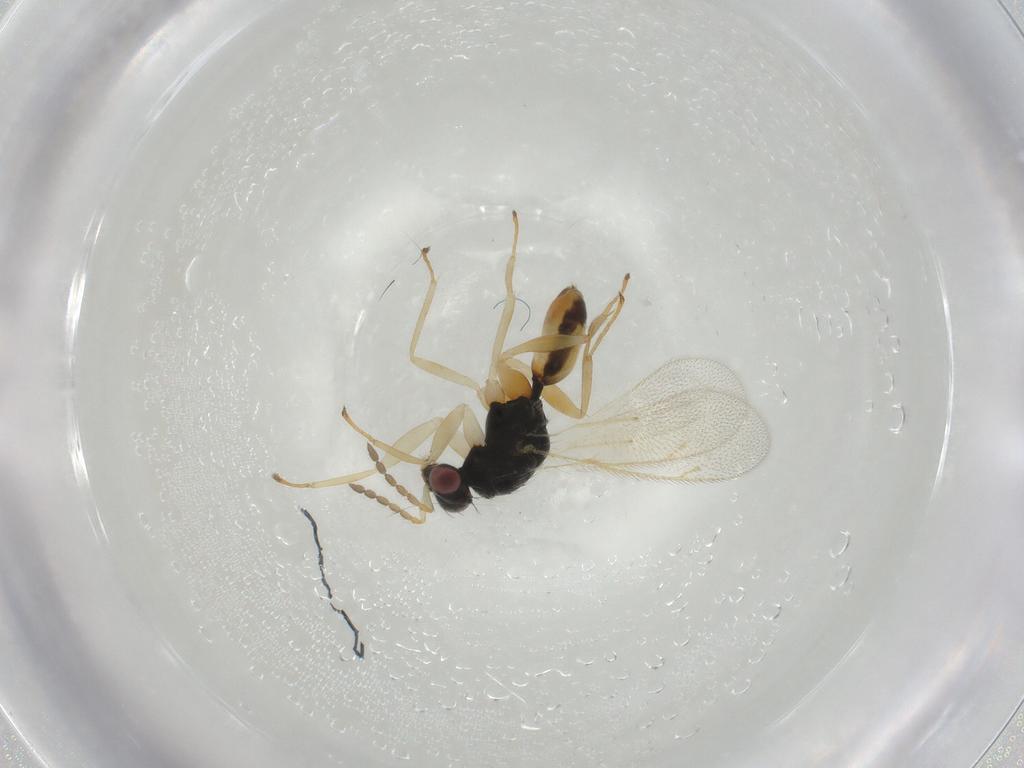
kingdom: Animalia
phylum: Arthropoda
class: Insecta
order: Hymenoptera
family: Eulophidae
